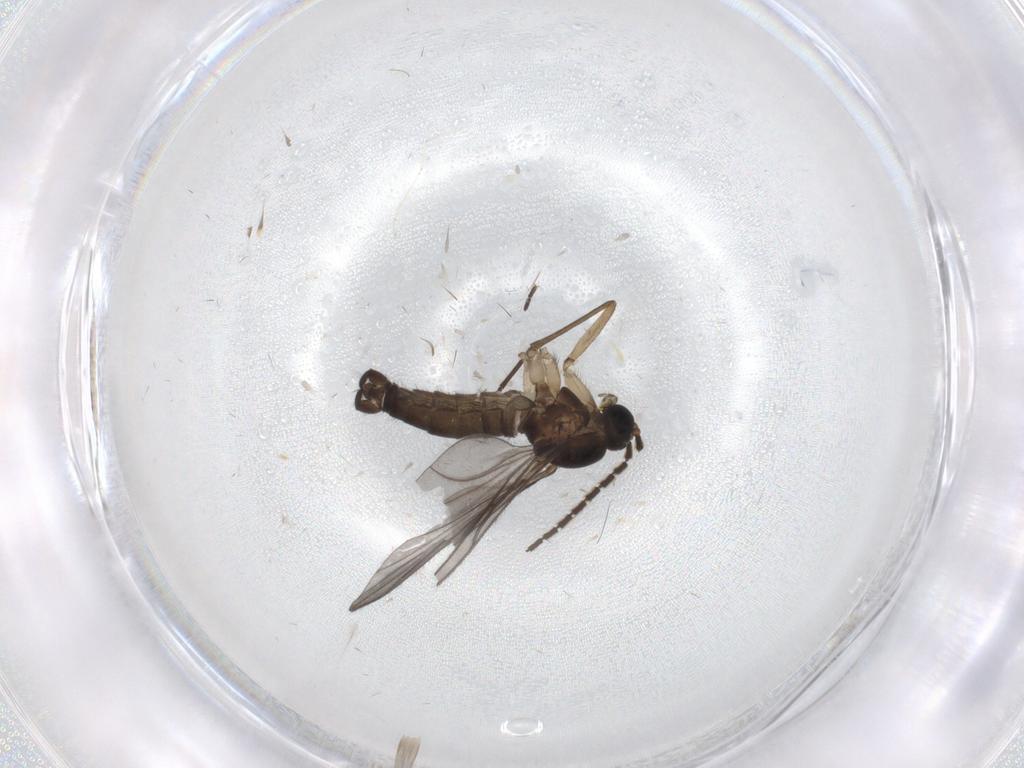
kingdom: Animalia
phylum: Arthropoda
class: Insecta
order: Diptera
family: Sciaridae
